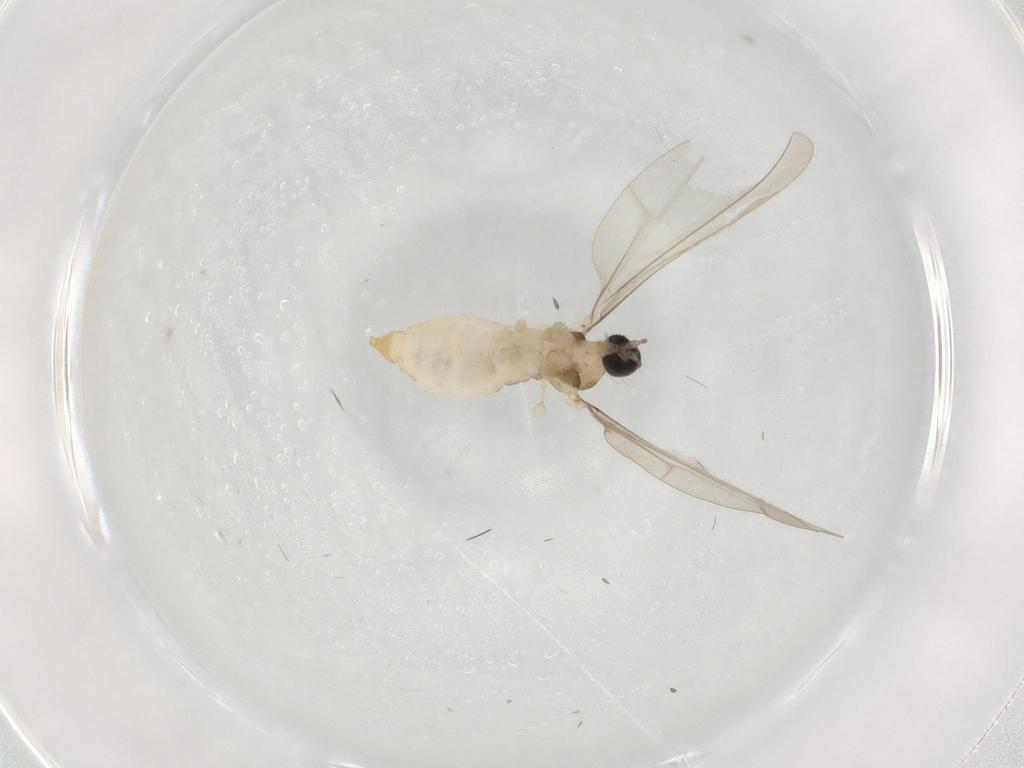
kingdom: Animalia
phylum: Arthropoda
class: Insecta
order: Diptera
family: Cecidomyiidae
